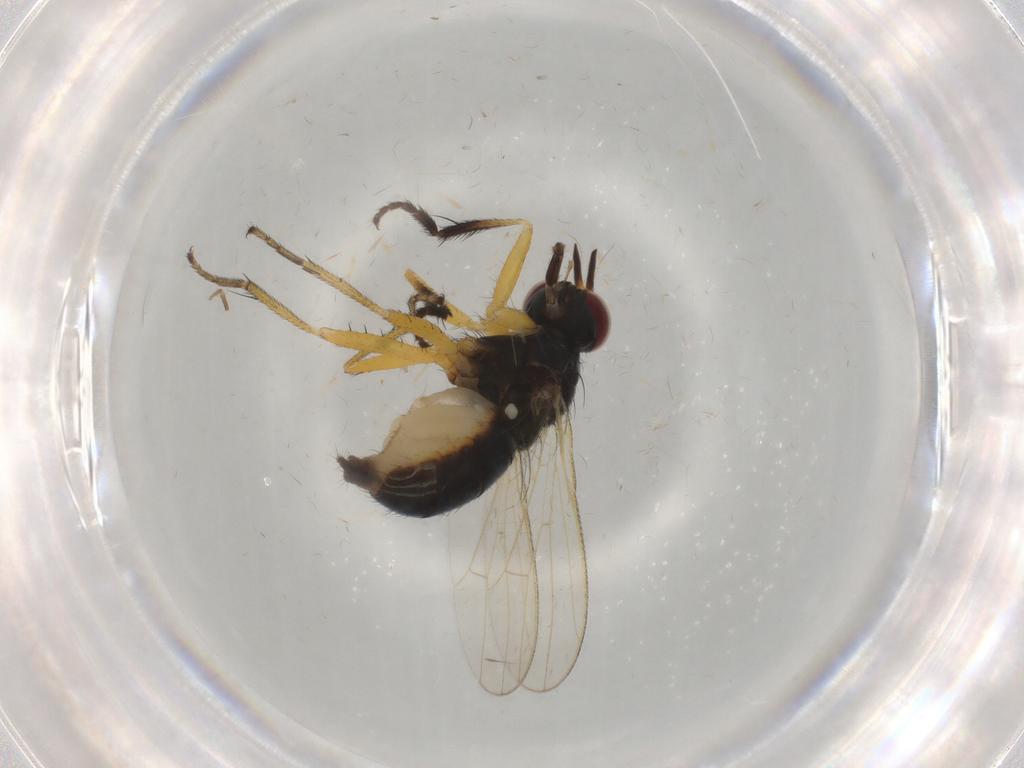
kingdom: Animalia
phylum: Arthropoda
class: Insecta
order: Diptera
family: Muscidae
